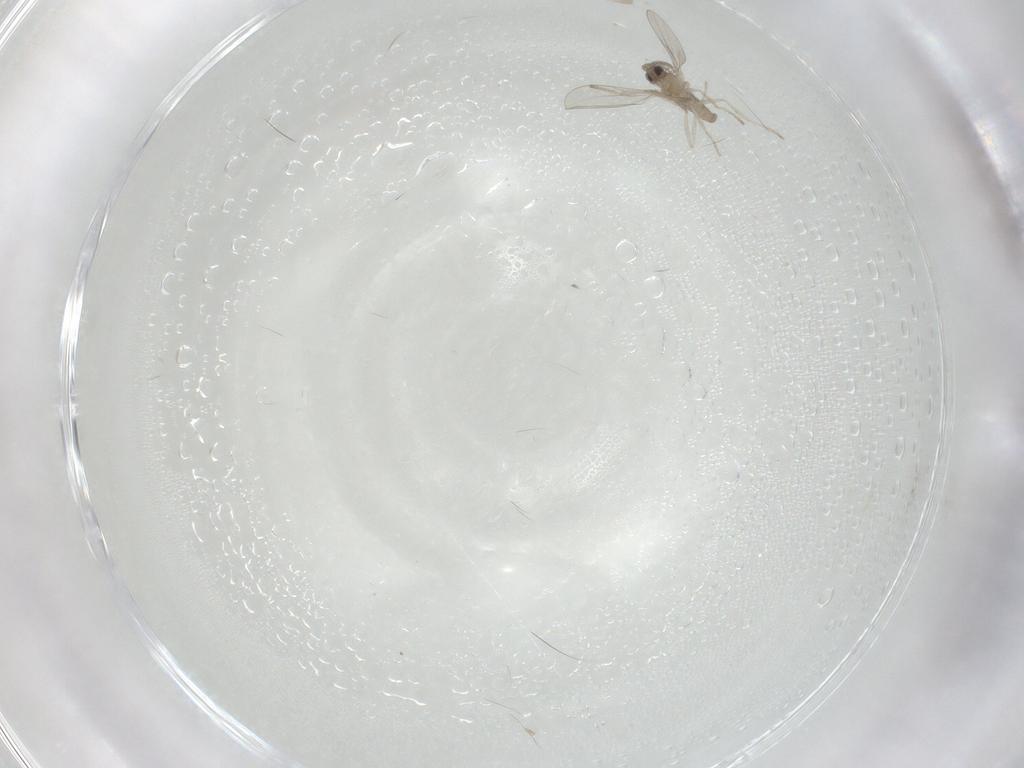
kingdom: Animalia
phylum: Arthropoda
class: Insecta
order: Diptera
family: Cecidomyiidae
